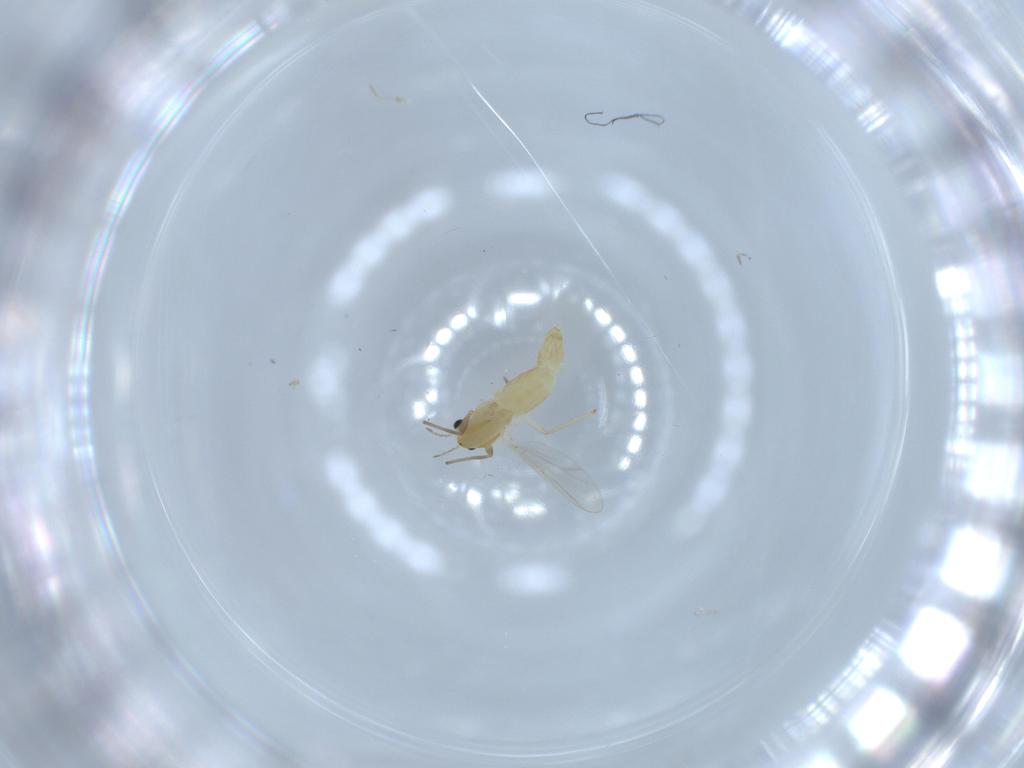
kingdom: Animalia
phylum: Arthropoda
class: Insecta
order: Diptera
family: Chironomidae
